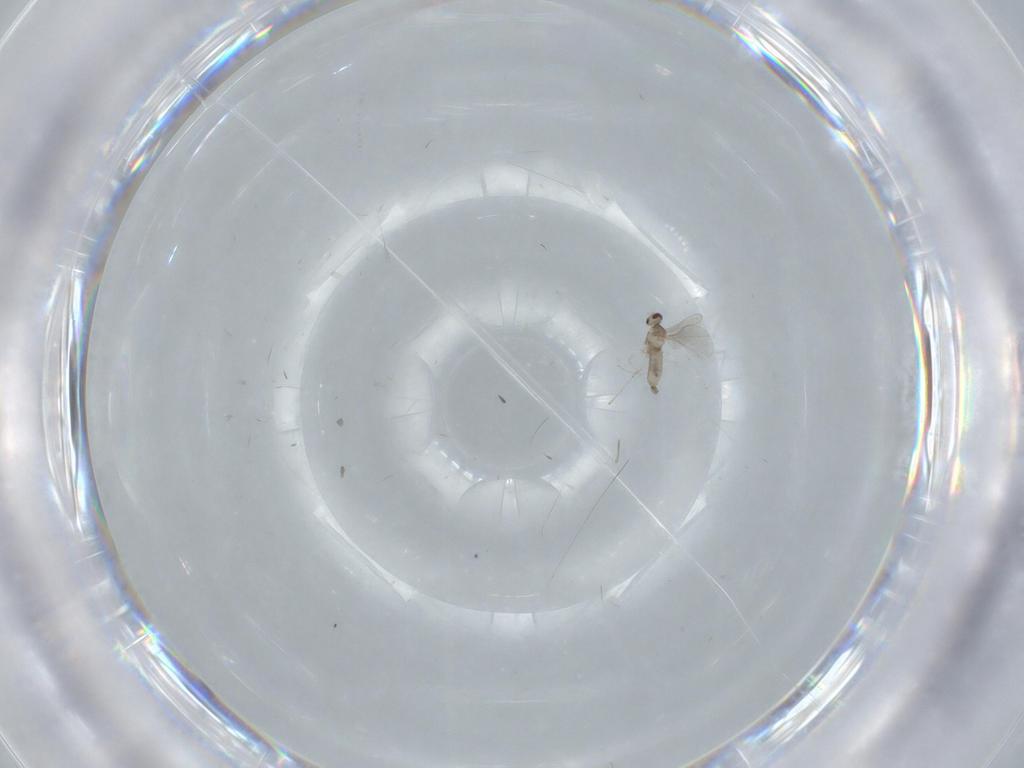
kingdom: Animalia
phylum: Arthropoda
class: Insecta
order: Diptera
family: Cecidomyiidae
